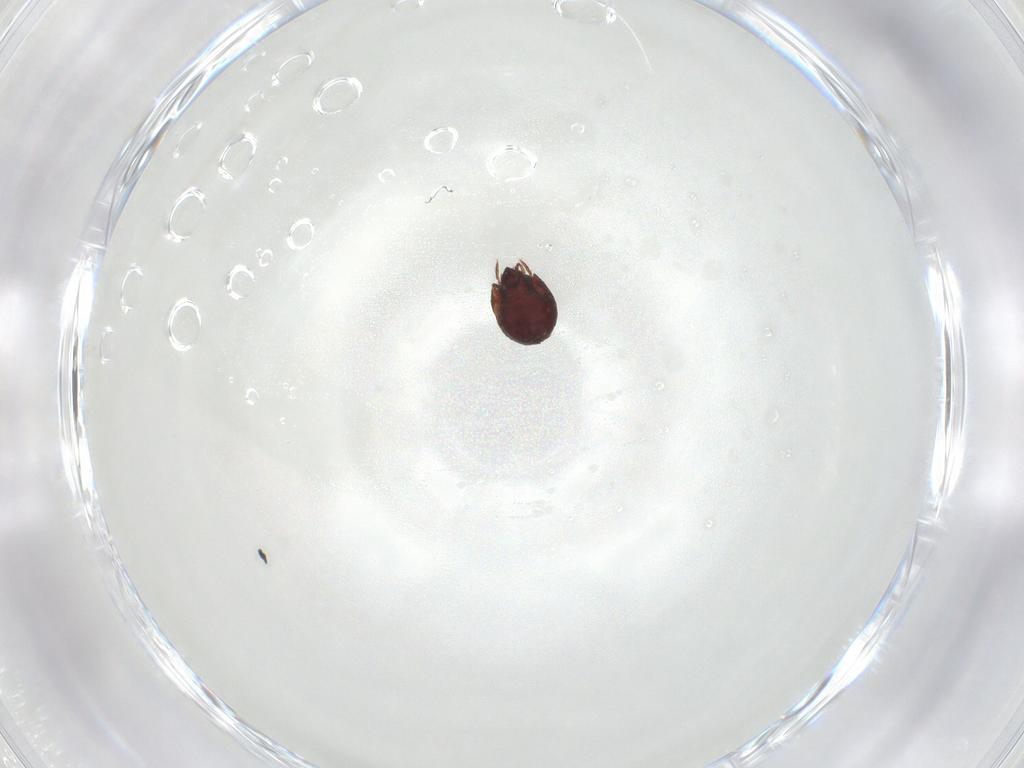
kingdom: Animalia
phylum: Arthropoda
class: Arachnida
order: Sarcoptiformes
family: Humerobatidae
